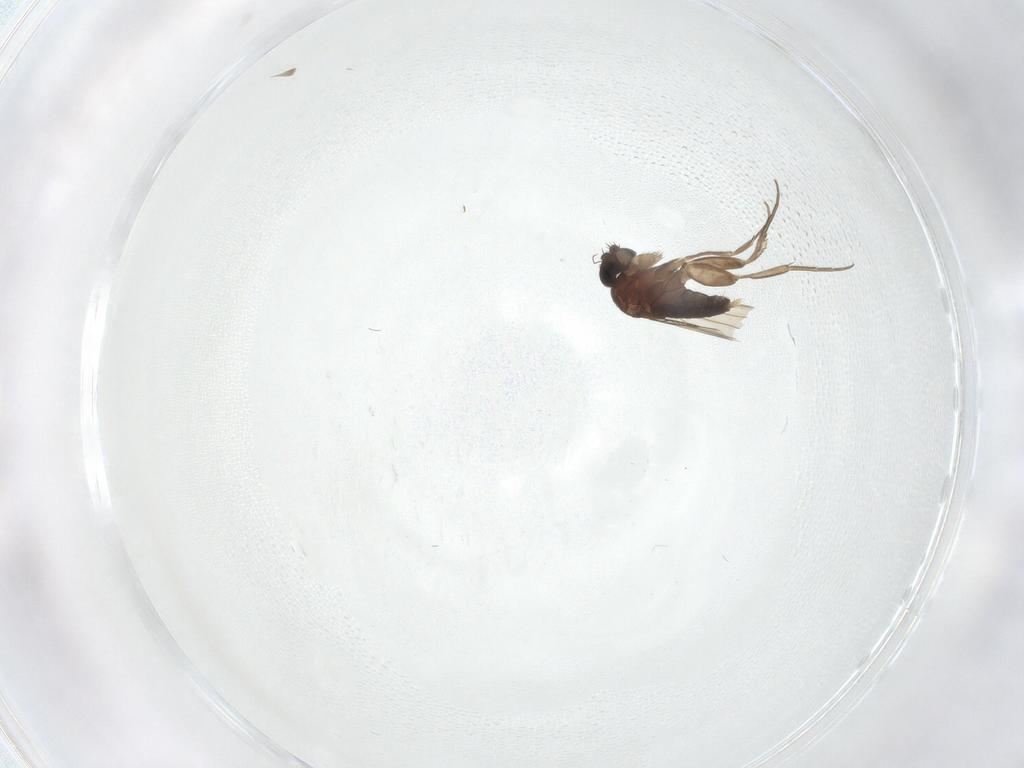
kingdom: Animalia
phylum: Arthropoda
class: Insecta
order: Diptera
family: Phoridae
